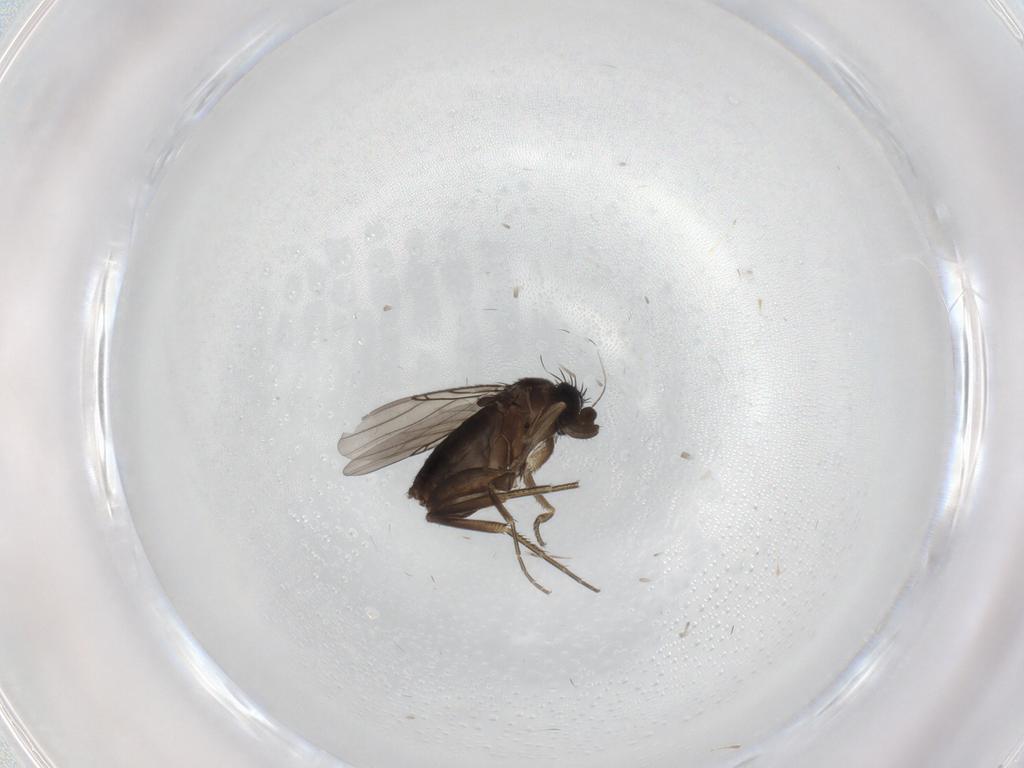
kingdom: Animalia
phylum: Arthropoda
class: Insecta
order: Diptera
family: Phoridae
